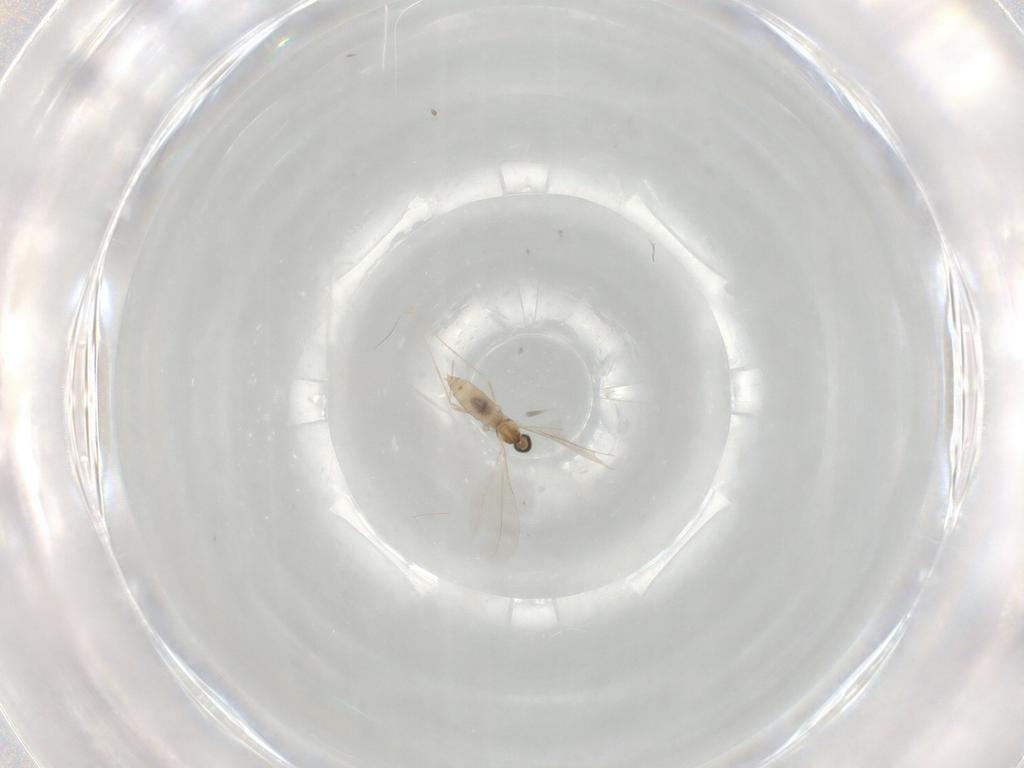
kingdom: Animalia
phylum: Arthropoda
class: Insecta
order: Diptera
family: Cecidomyiidae
